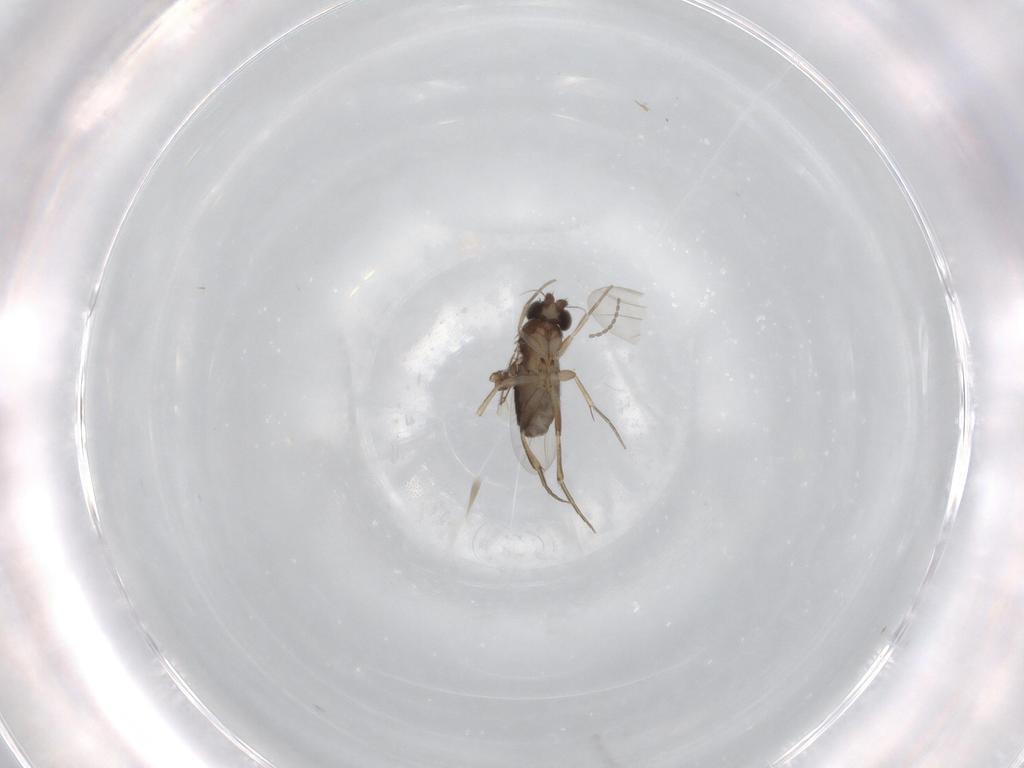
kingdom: Animalia
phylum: Arthropoda
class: Insecta
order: Diptera
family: Phoridae
